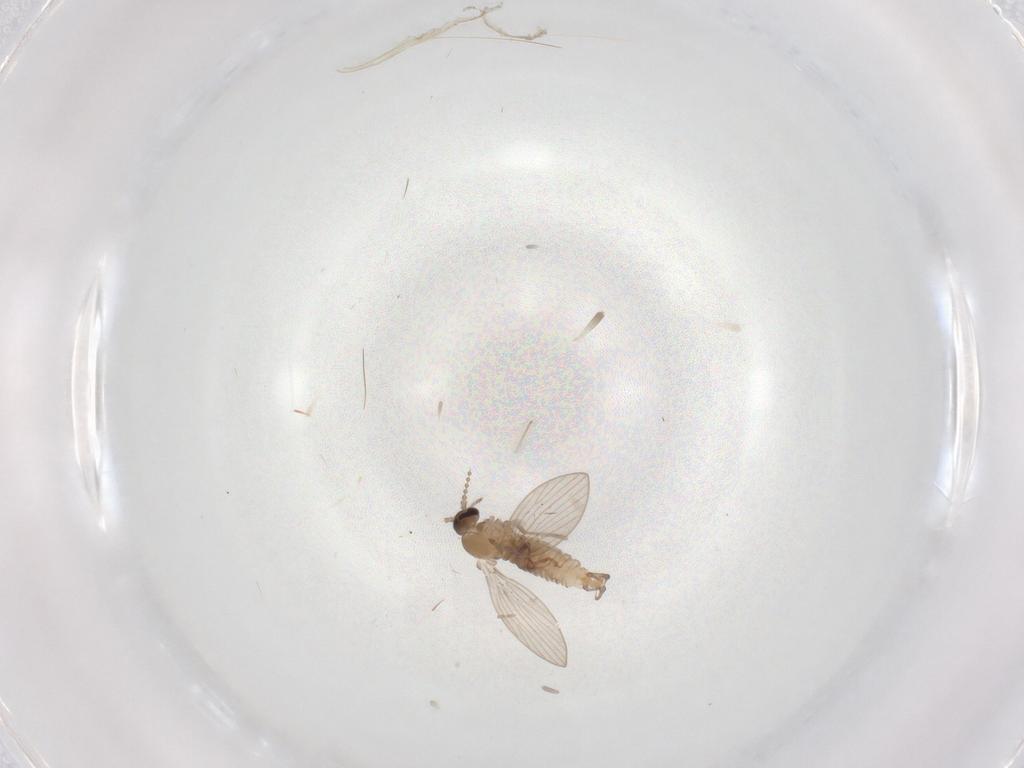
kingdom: Animalia
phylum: Arthropoda
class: Insecta
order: Diptera
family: Psychodidae
